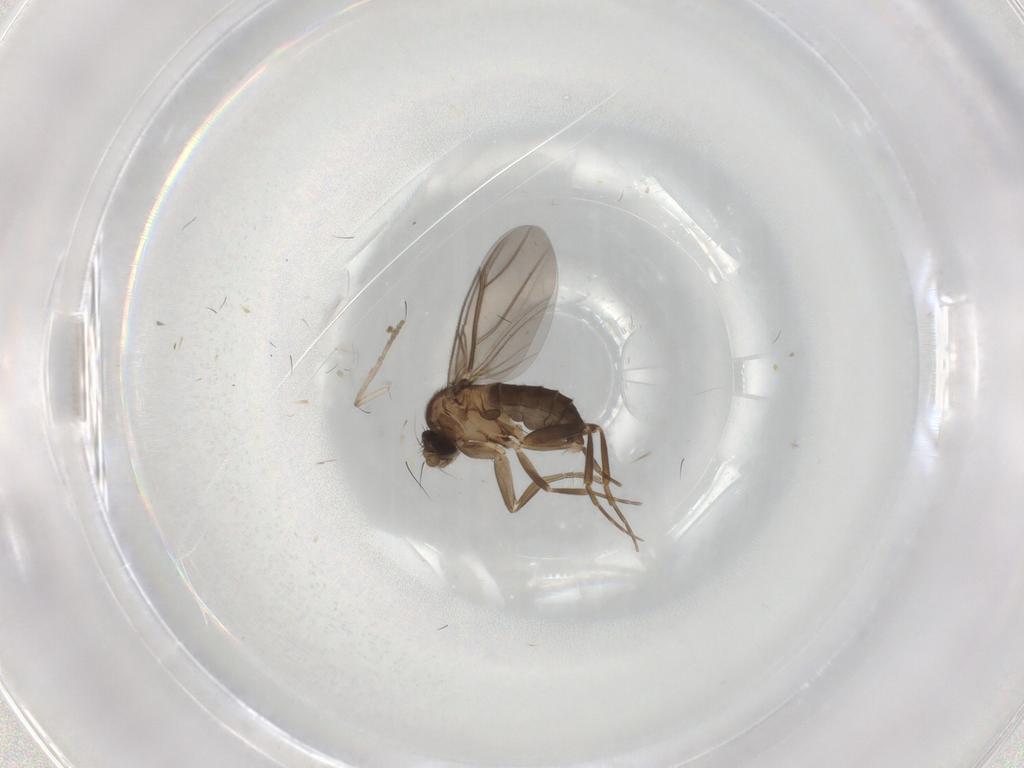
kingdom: Animalia
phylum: Arthropoda
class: Insecta
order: Diptera
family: Psychodidae
